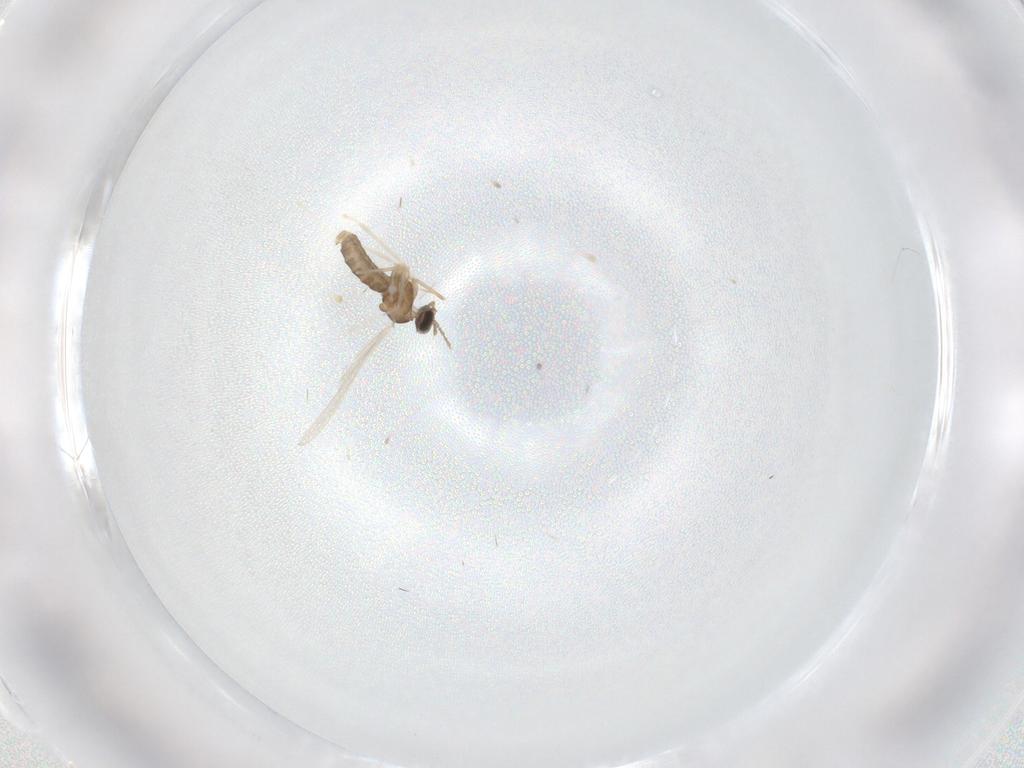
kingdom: Animalia
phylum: Arthropoda
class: Insecta
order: Diptera
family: Cecidomyiidae
